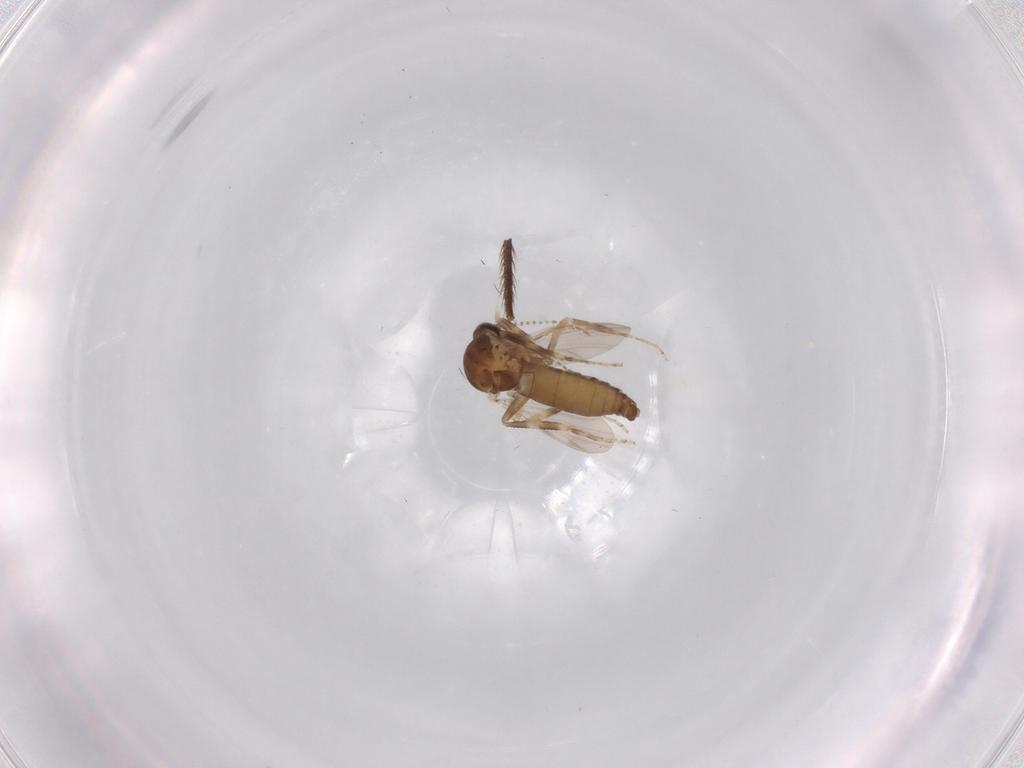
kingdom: Animalia
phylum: Arthropoda
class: Insecta
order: Diptera
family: Ceratopogonidae
